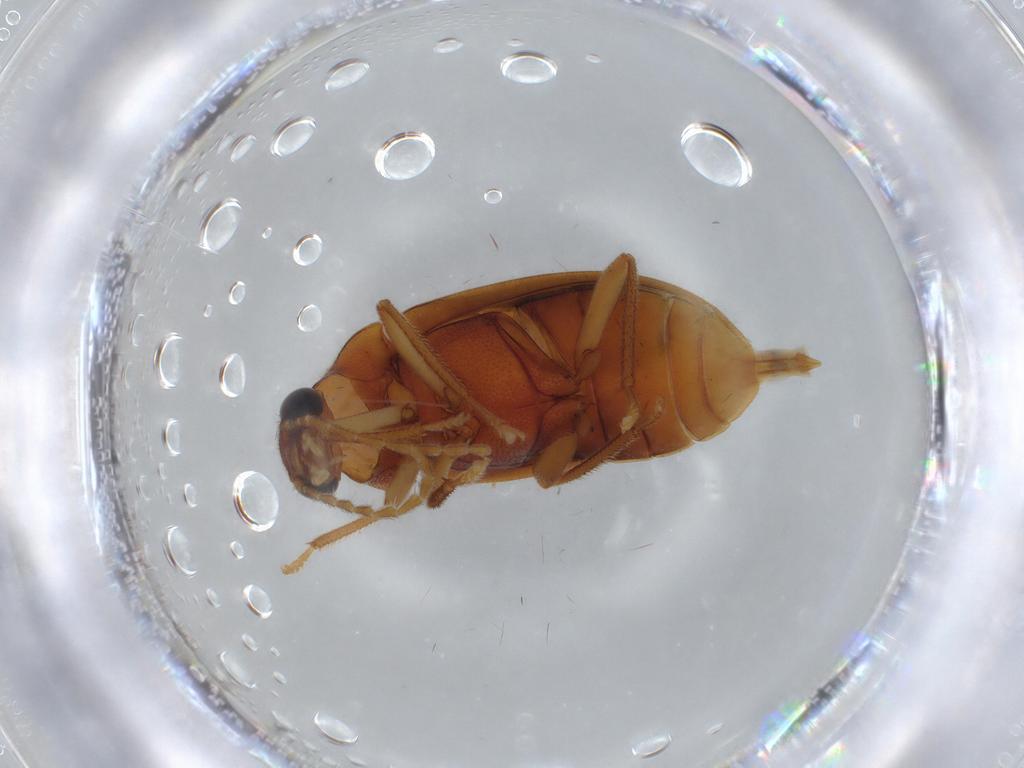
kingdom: Animalia
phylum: Arthropoda
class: Insecta
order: Coleoptera
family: Ptilodactylidae
